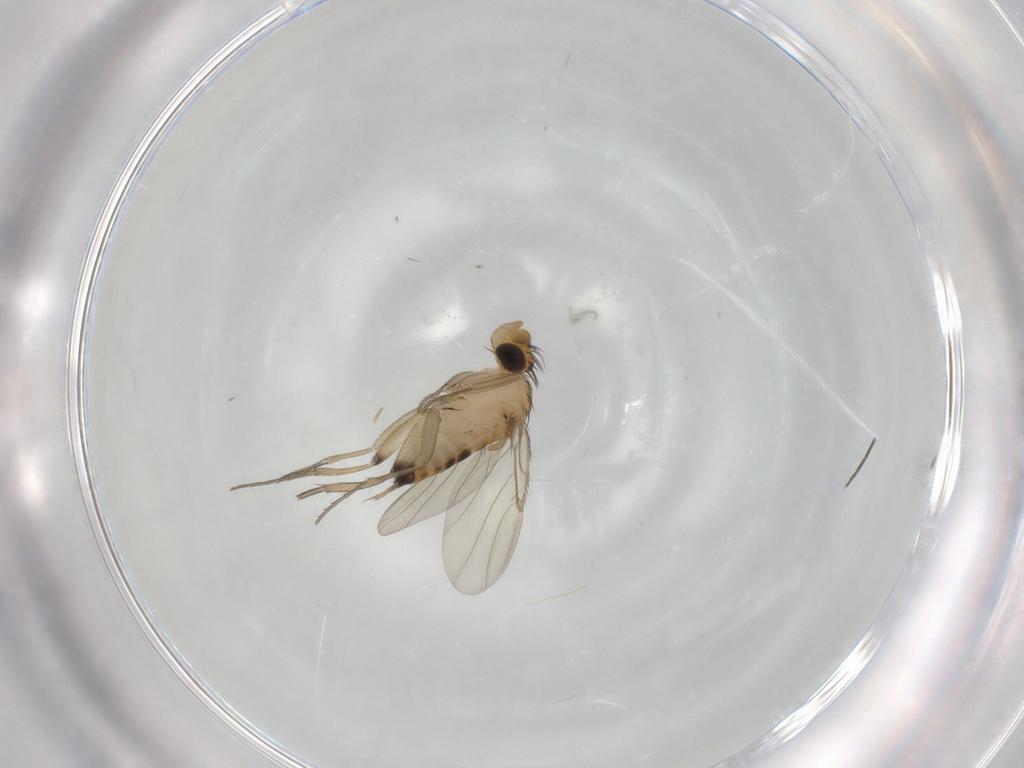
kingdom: Animalia
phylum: Arthropoda
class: Insecta
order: Diptera
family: Phoridae
